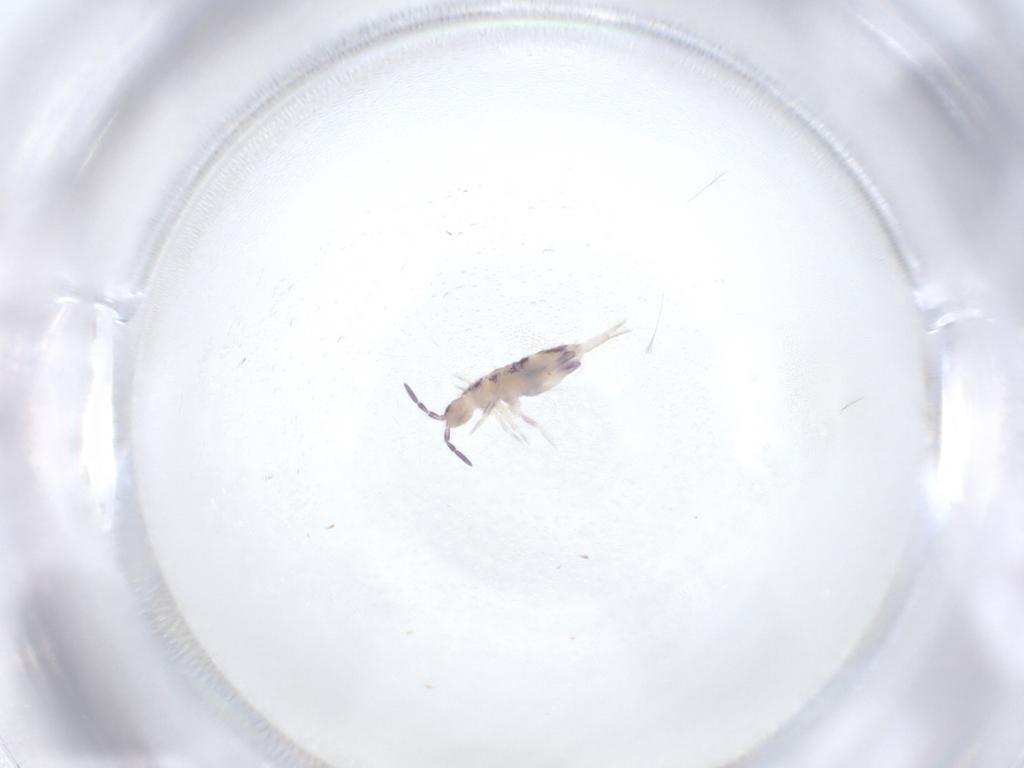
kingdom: Animalia
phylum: Arthropoda
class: Collembola
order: Entomobryomorpha
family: Entomobryidae
